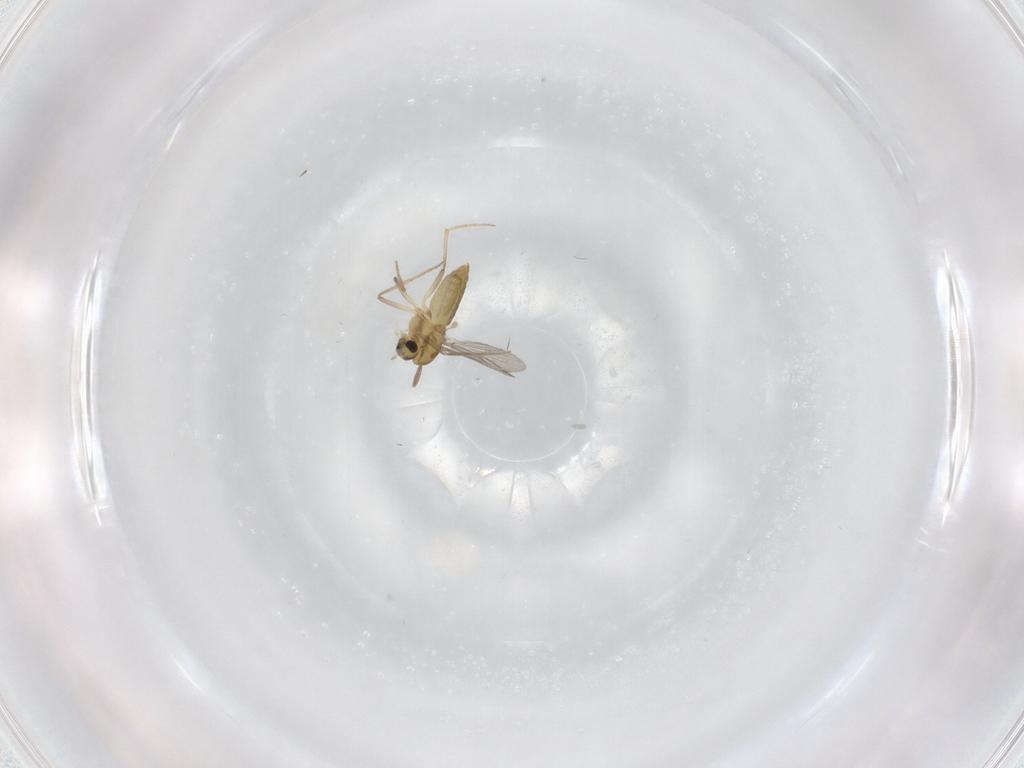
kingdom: Animalia
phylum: Arthropoda
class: Insecta
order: Diptera
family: Chironomidae
